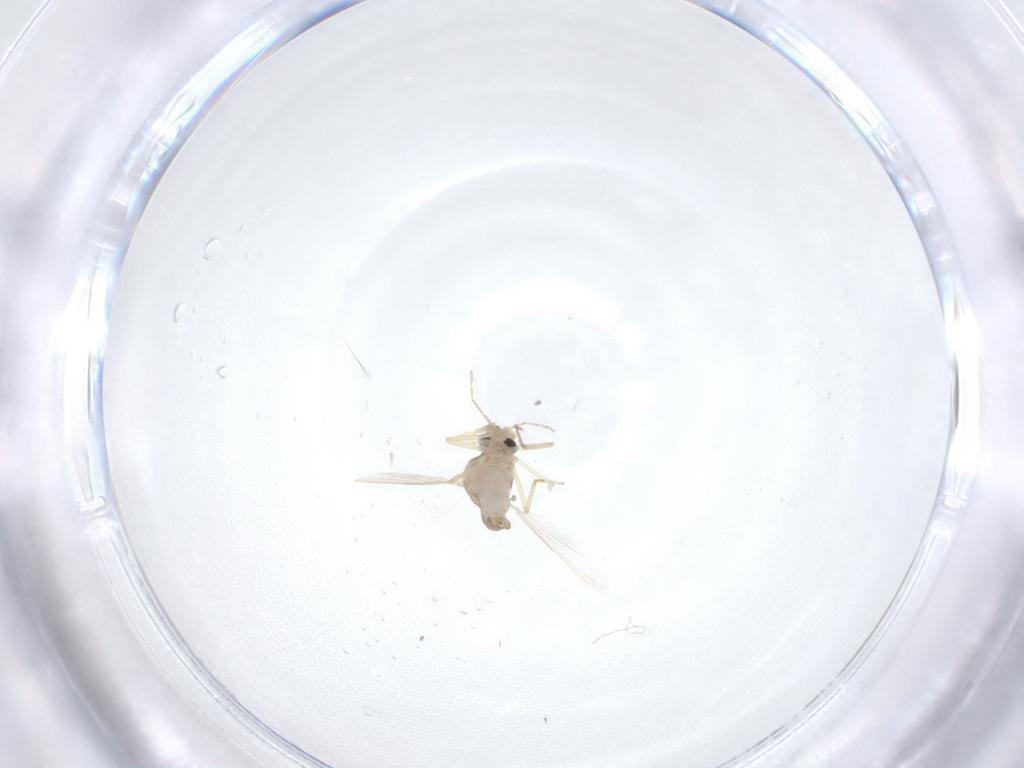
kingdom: Animalia
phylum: Arthropoda
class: Insecta
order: Diptera
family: Ceratopogonidae
